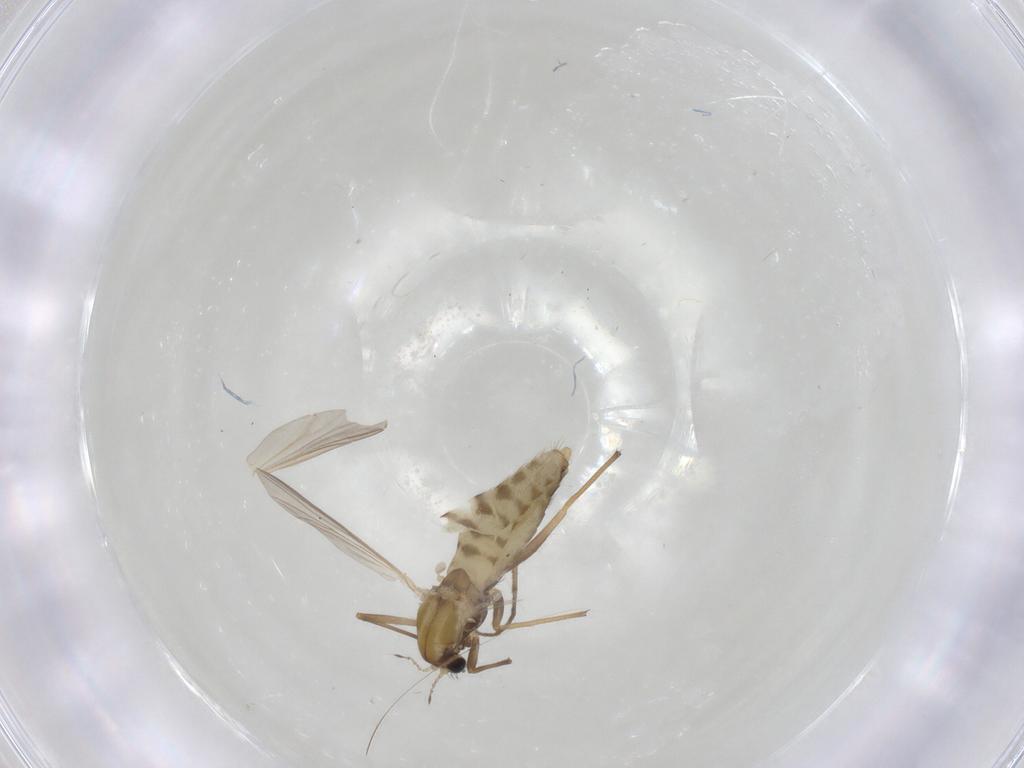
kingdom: Animalia
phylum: Arthropoda
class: Insecta
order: Diptera
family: Chironomidae
